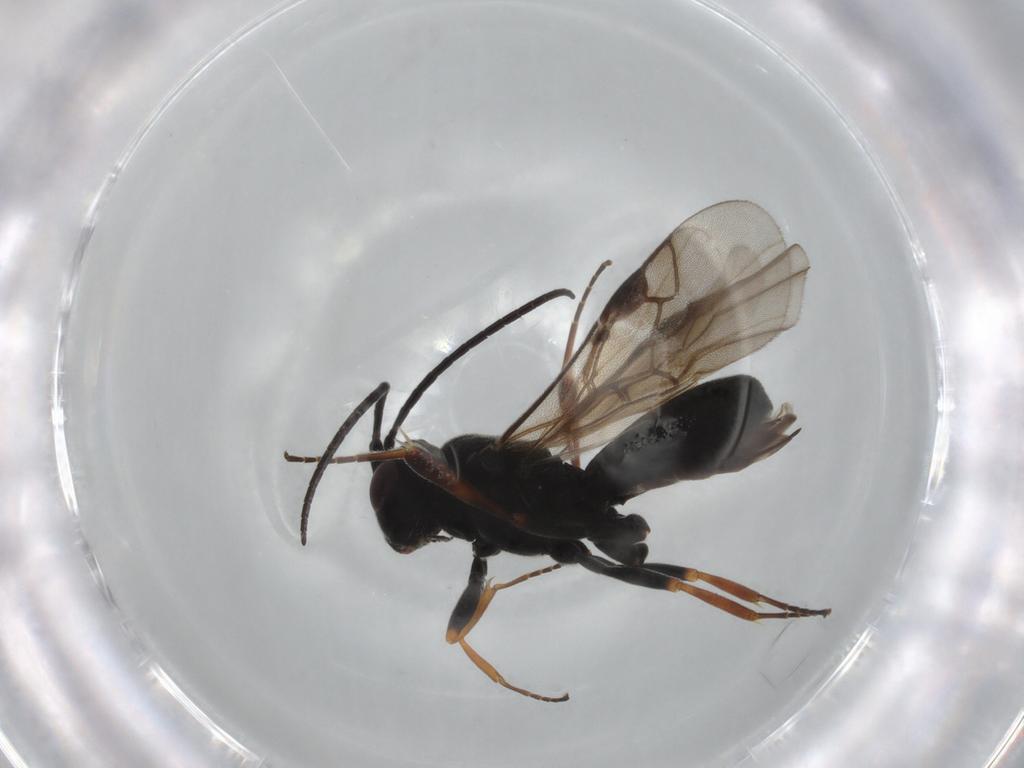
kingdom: Animalia
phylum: Arthropoda
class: Insecta
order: Hymenoptera
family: Braconidae
